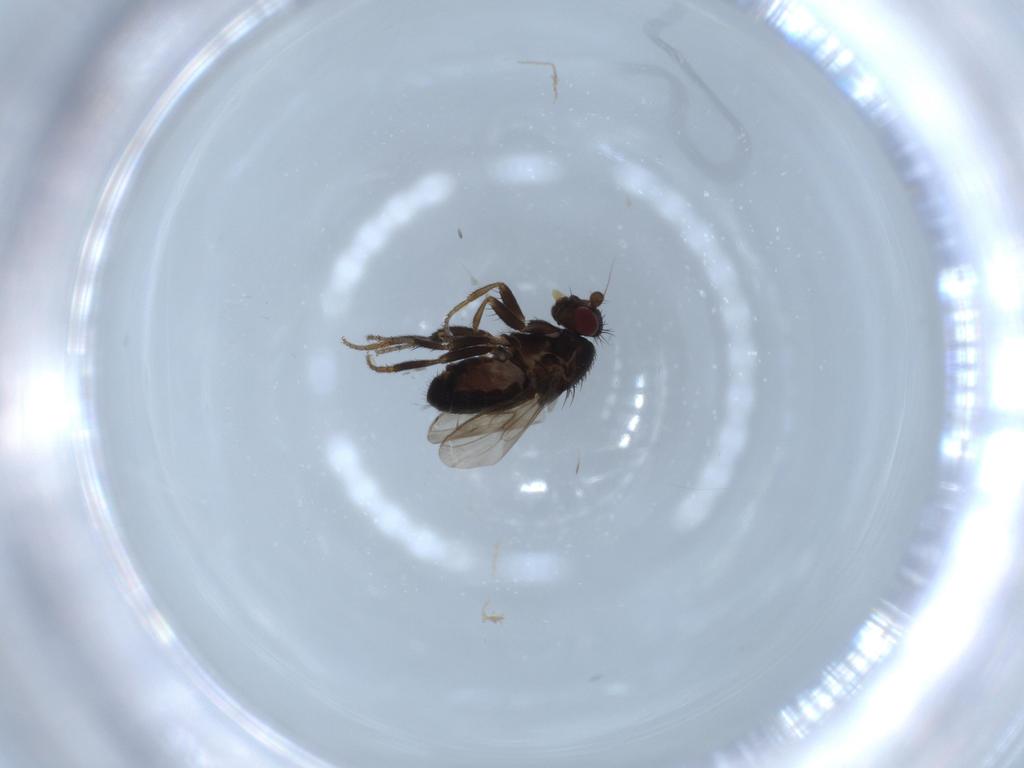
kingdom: Animalia
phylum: Arthropoda
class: Insecta
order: Diptera
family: Sphaeroceridae
